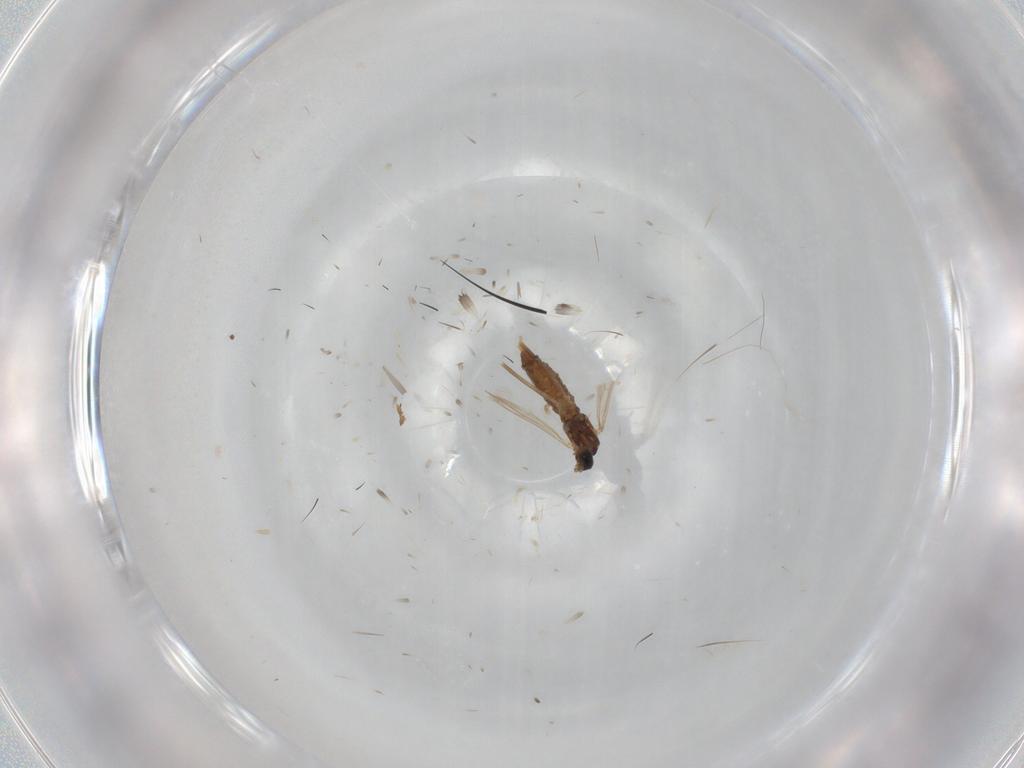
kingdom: Animalia
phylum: Arthropoda
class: Insecta
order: Diptera
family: Cecidomyiidae
